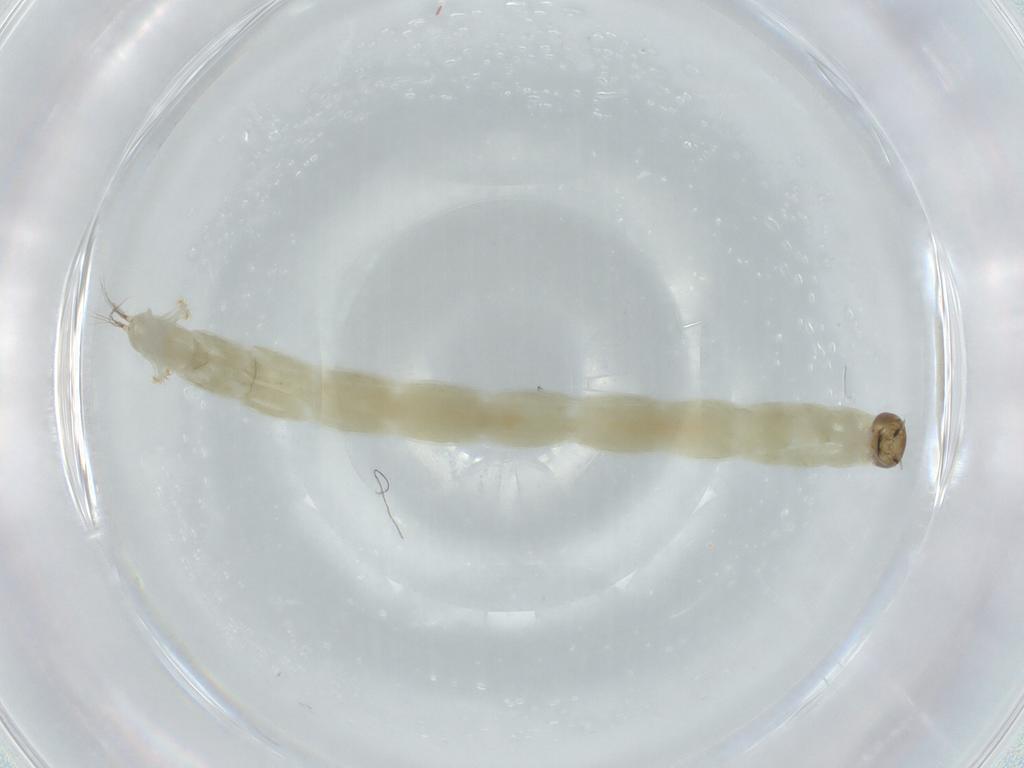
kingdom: Animalia
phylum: Arthropoda
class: Insecta
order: Diptera
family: Chironomidae
